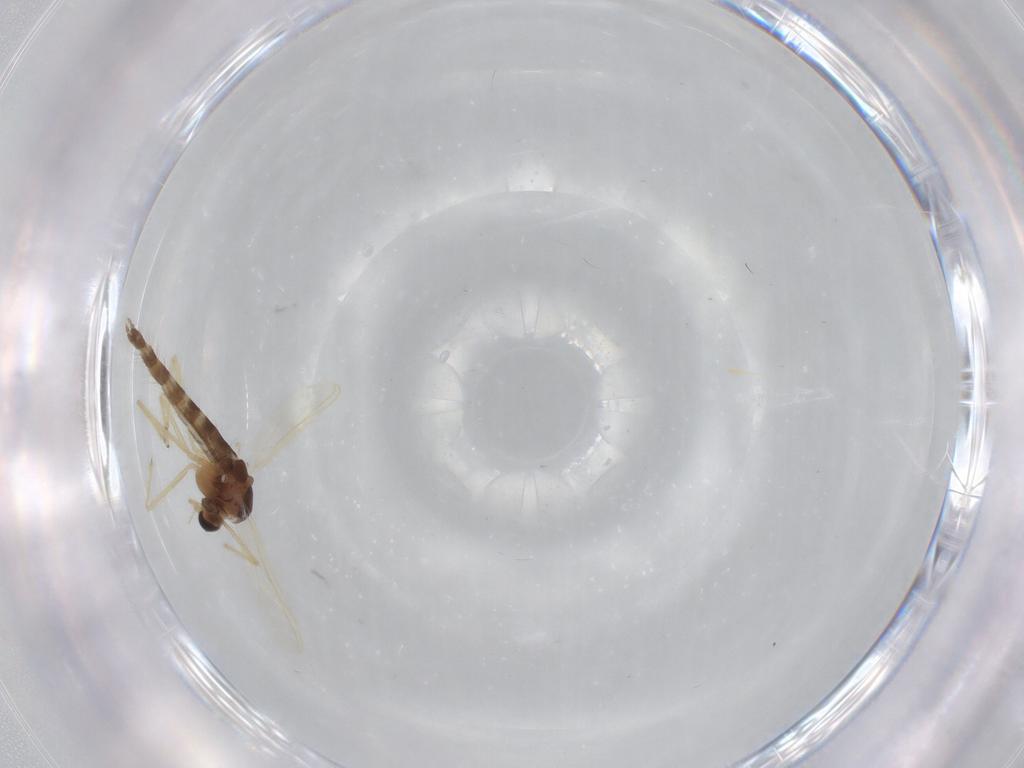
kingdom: Animalia
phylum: Arthropoda
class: Insecta
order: Diptera
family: Chironomidae
